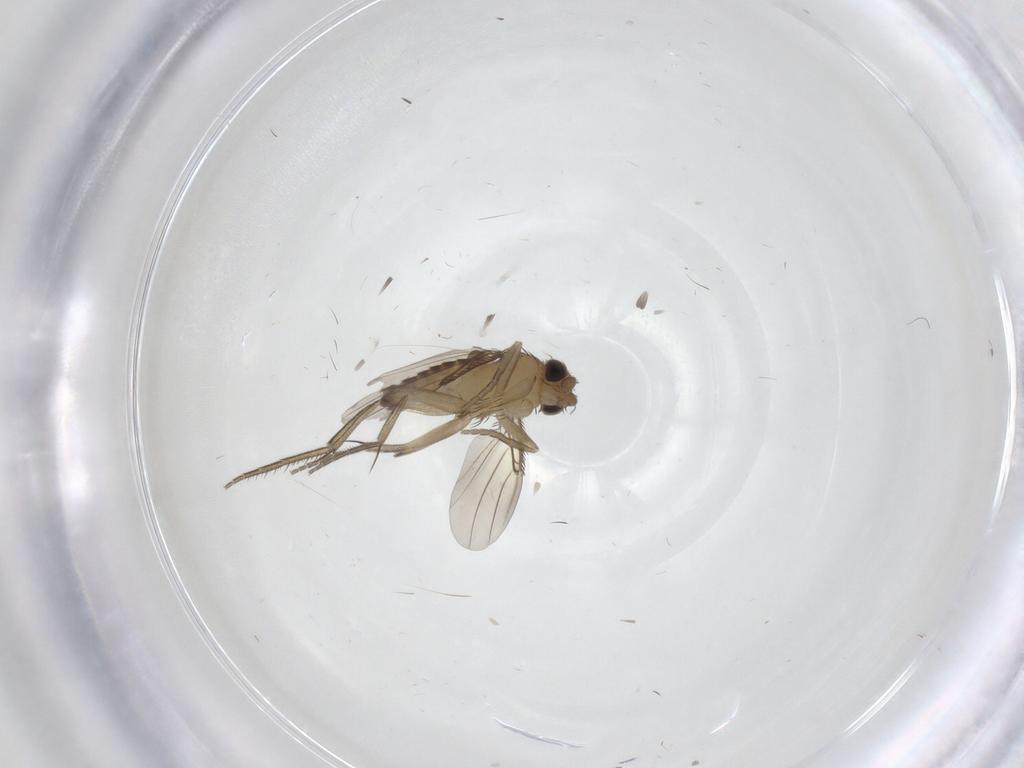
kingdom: Animalia
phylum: Arthropoda
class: Insecta
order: Diptera
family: Phoridae
